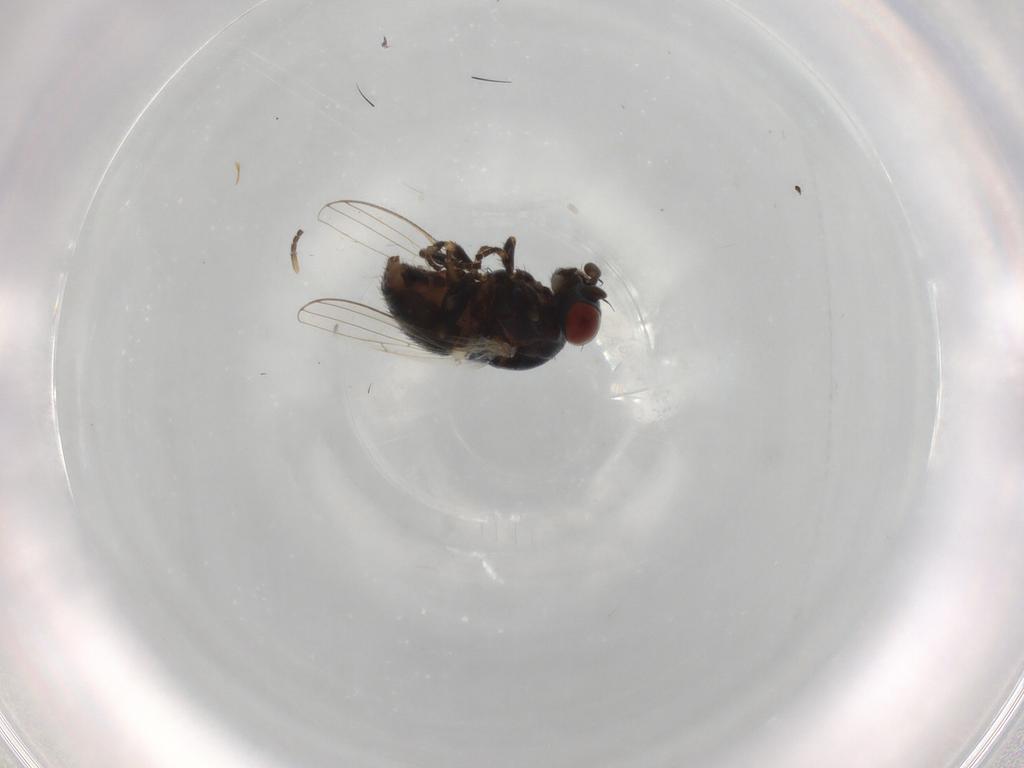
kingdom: Animalia
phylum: Arthropoda
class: Insecta
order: Diptera
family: Chamaemyiidae
